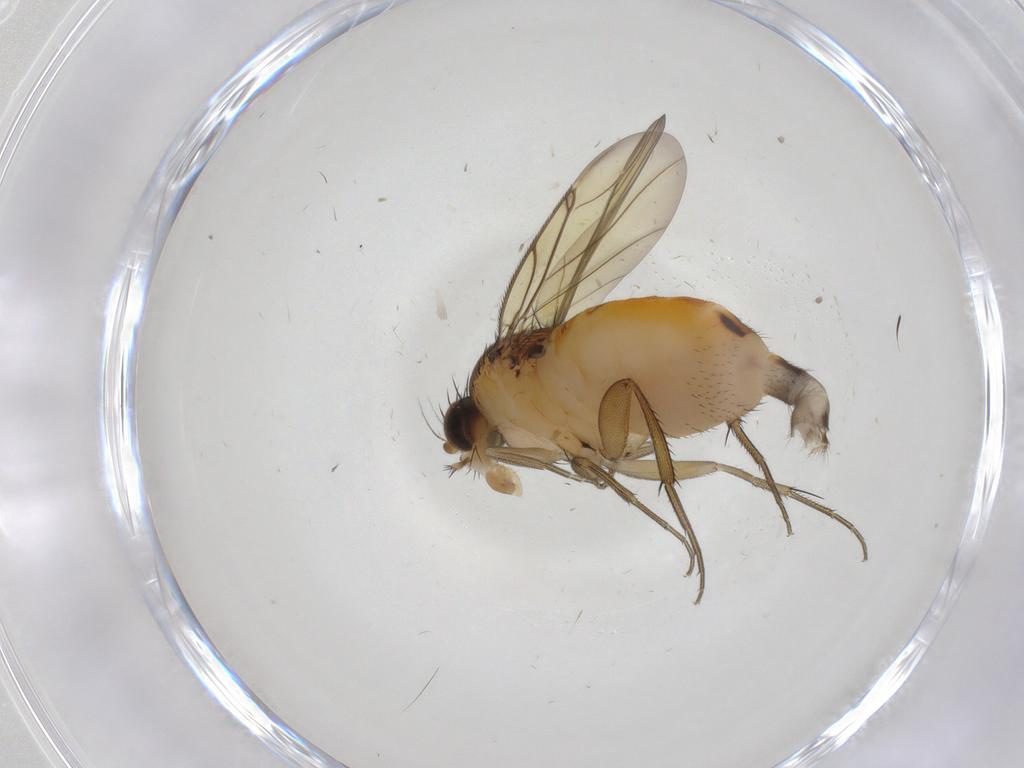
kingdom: Animalia
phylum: Arthropoda
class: Insecta
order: Diptera
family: Phoridae
